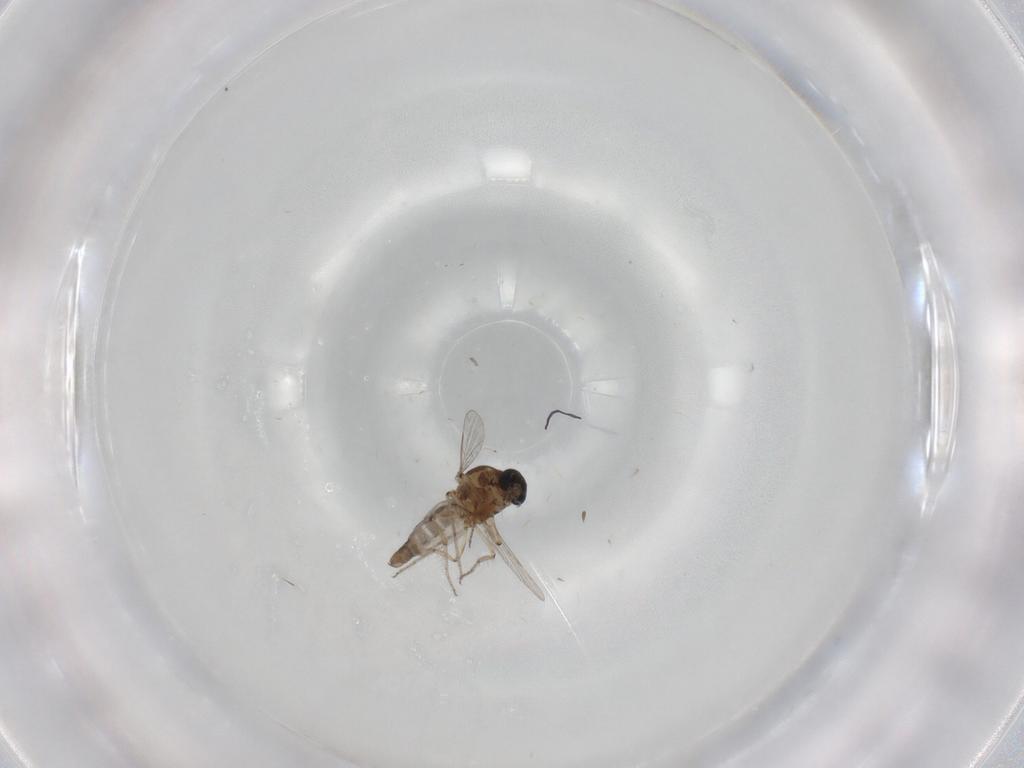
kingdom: Animalia
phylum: Arthropoda
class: Insecta
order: Diptera
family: Ceratopogonidae
